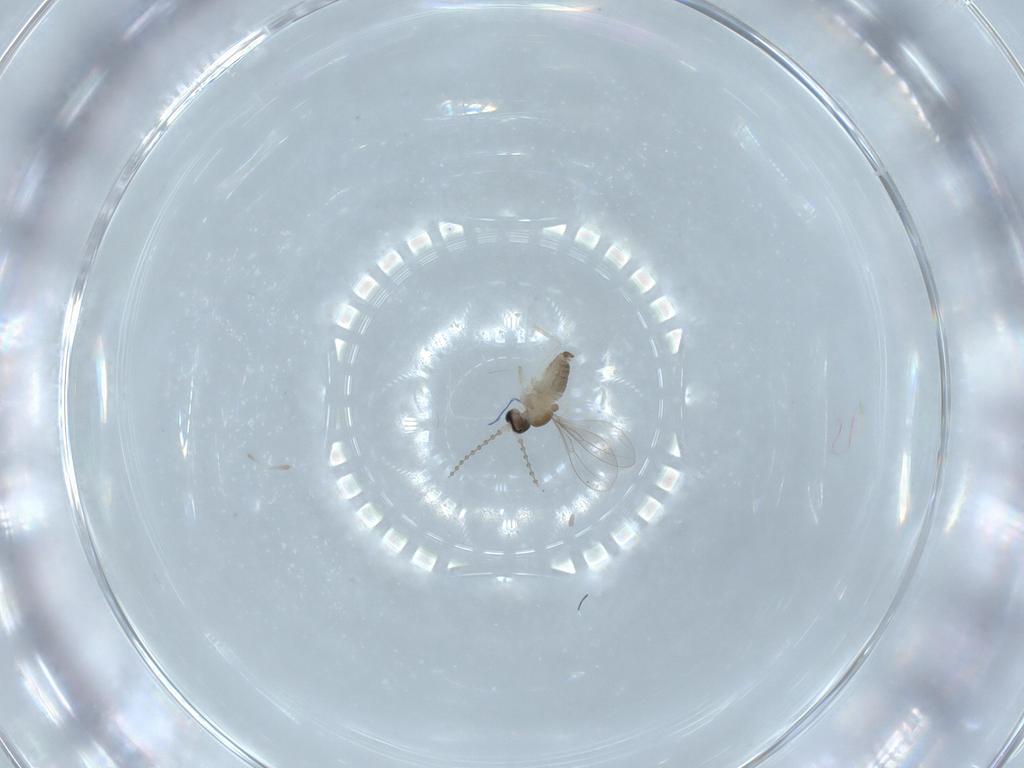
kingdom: Animalia
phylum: Arthropoda
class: Insecta
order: Diptera
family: Cecidomyiidae
